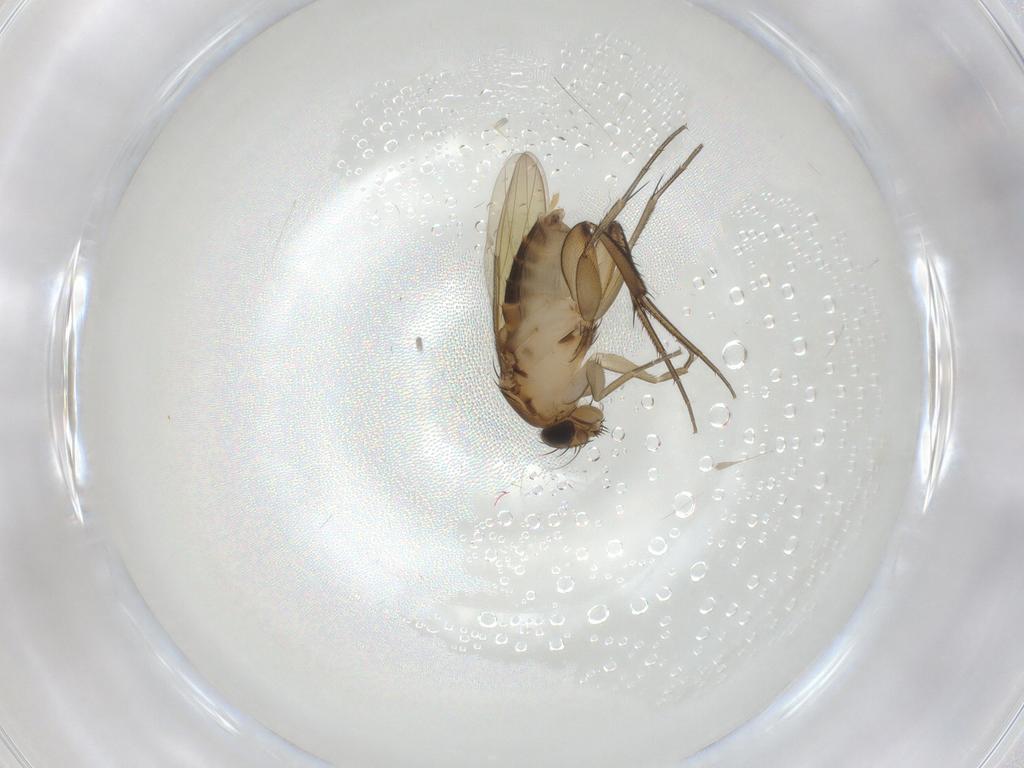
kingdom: Animalia
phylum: Arthropoda
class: Insecta
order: Diptera
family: Phoridae
